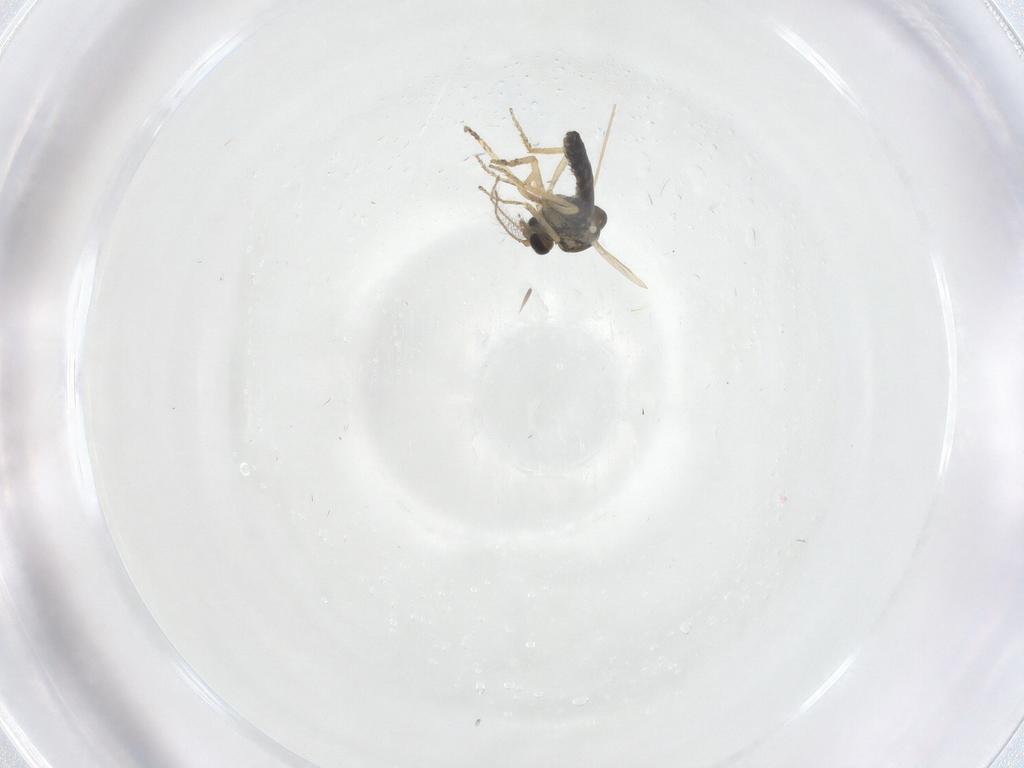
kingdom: Animalia
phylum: Arthropoda
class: Insecta
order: Diptera
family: Ceratopogonidae
